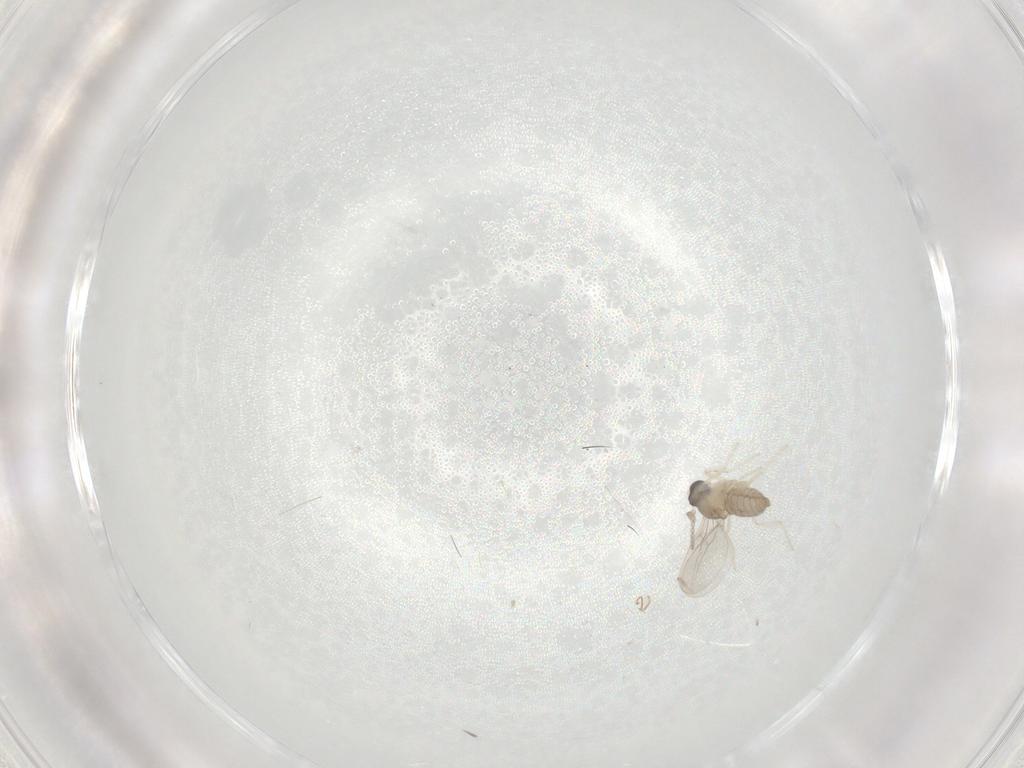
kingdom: Animalia
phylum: Arthropoda
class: Insecta
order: Diptera
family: Cecidomyiidae
